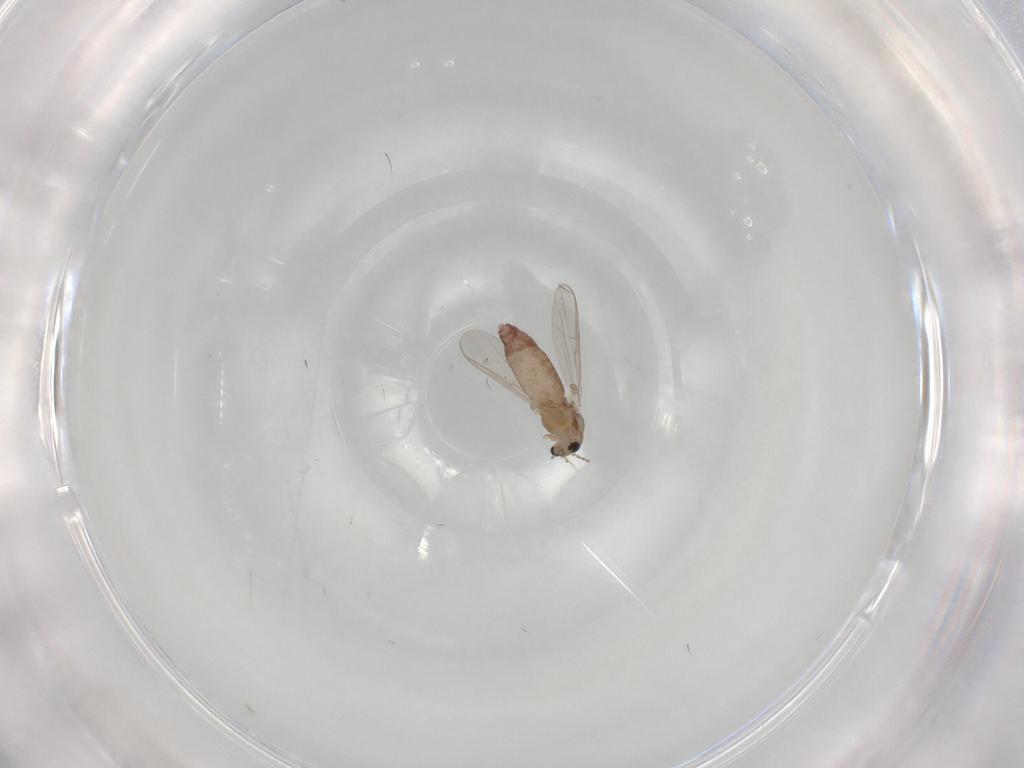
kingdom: Animalia
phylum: Arthropoda
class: Insecta
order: Diptera
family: Chironomidae
